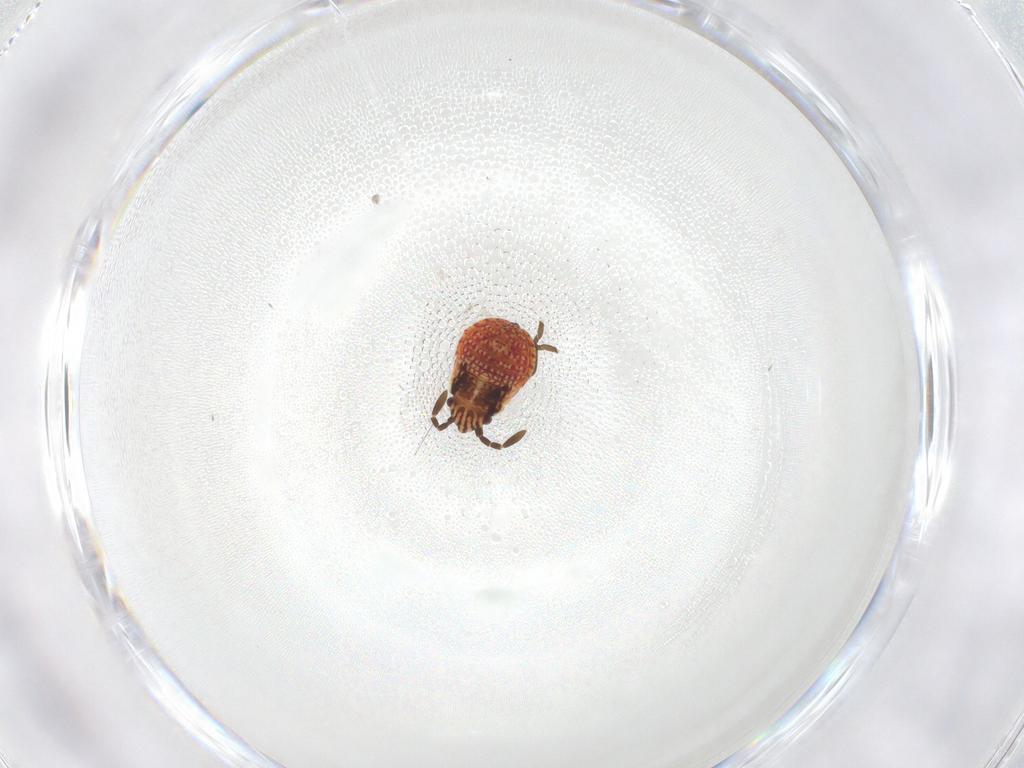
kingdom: Animalia
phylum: Arthropoda
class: Insecta
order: Hemiptera
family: Lygaeidae
